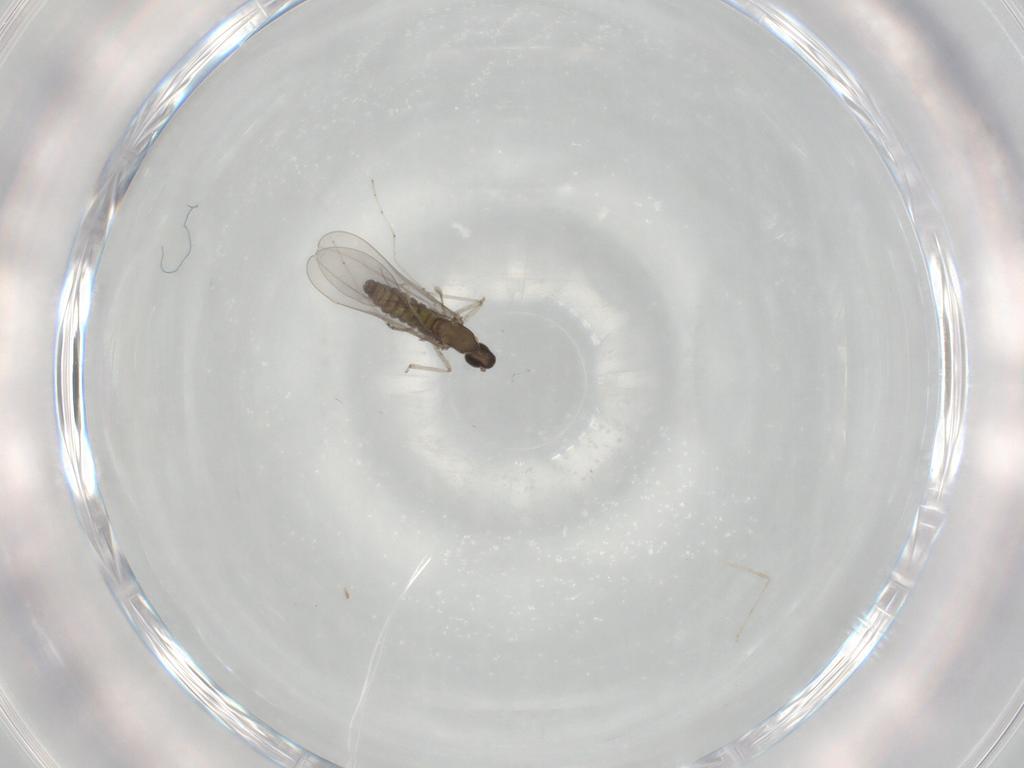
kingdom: Animalia
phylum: Arthropoda
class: Insecta
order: Diptera
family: Cecidomyiidae
